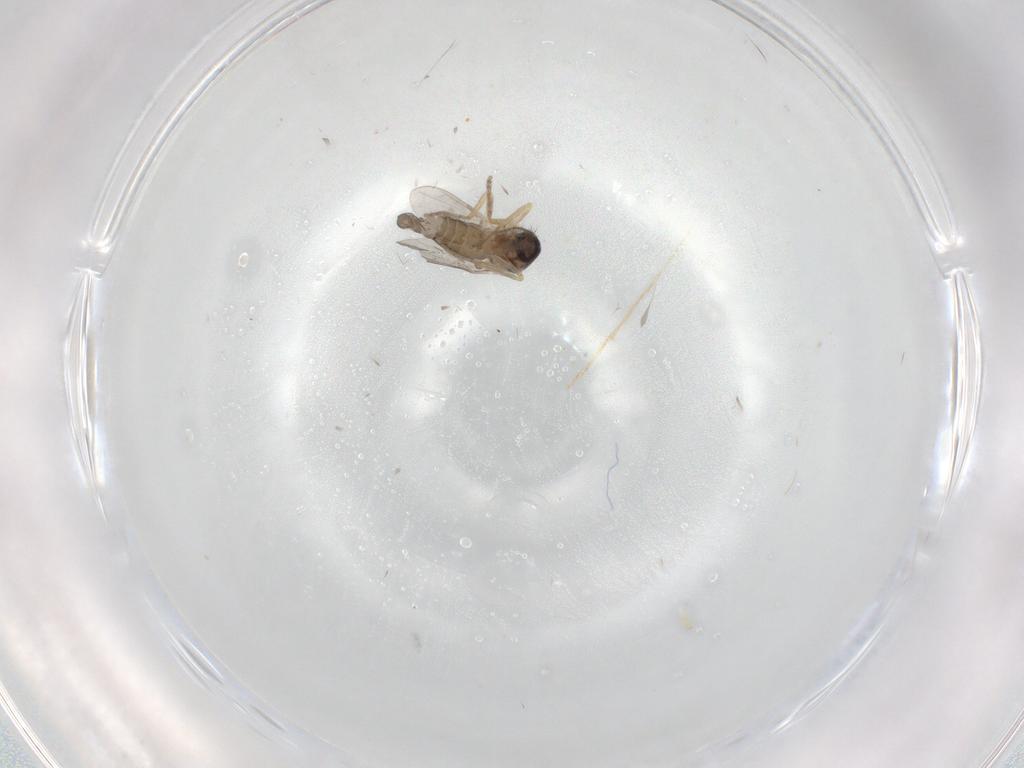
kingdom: Animalia
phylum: Arthropoda
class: Insecta
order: Diptera
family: Ceratopogonidae
